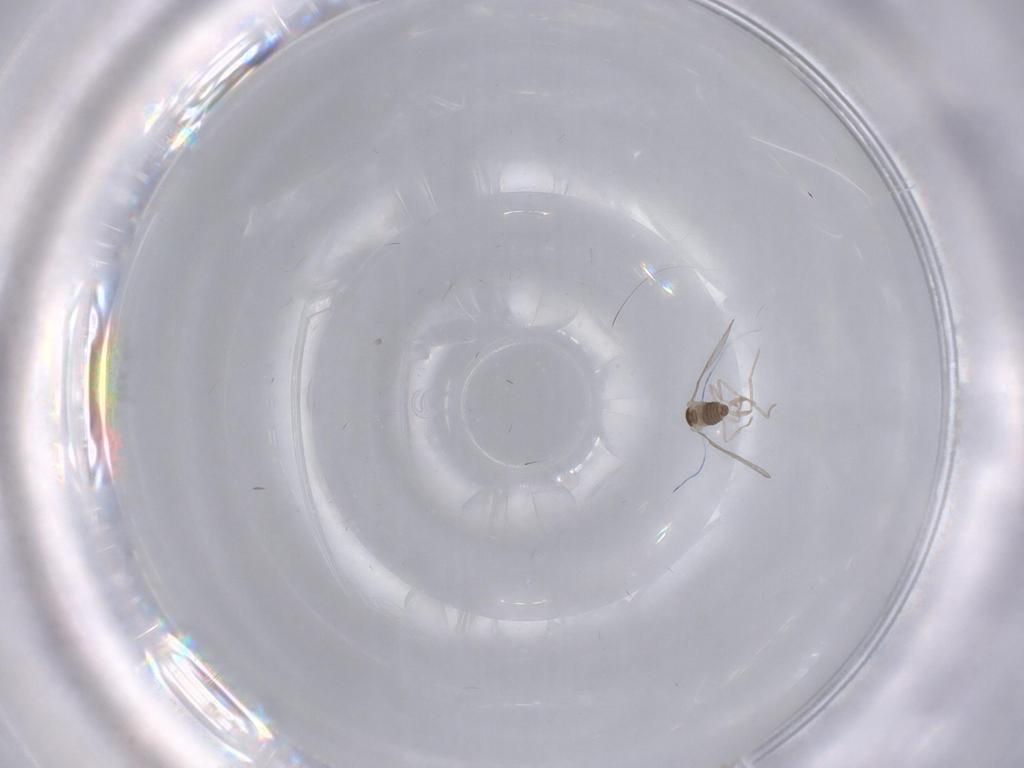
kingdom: Animalia
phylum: Arthropoda
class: Insecta
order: Diptera
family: Cecidomyiidae
